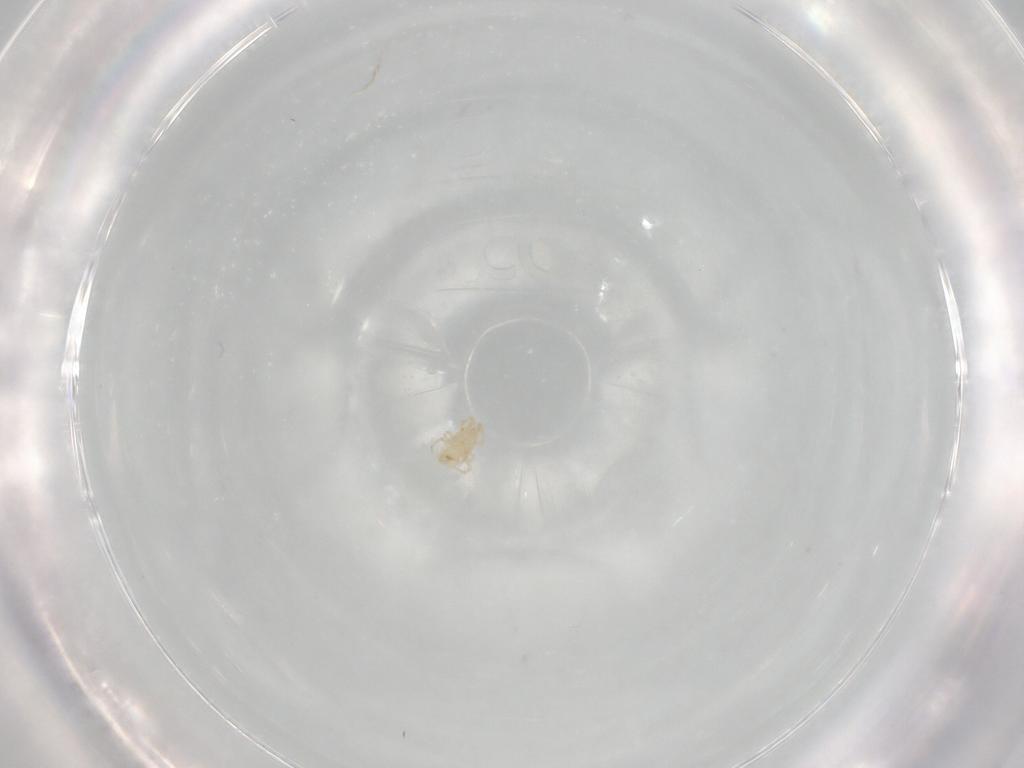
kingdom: Animalia
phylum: Arthropoda
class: Arachnida
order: Mesostigmata
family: Phytoseiidae
